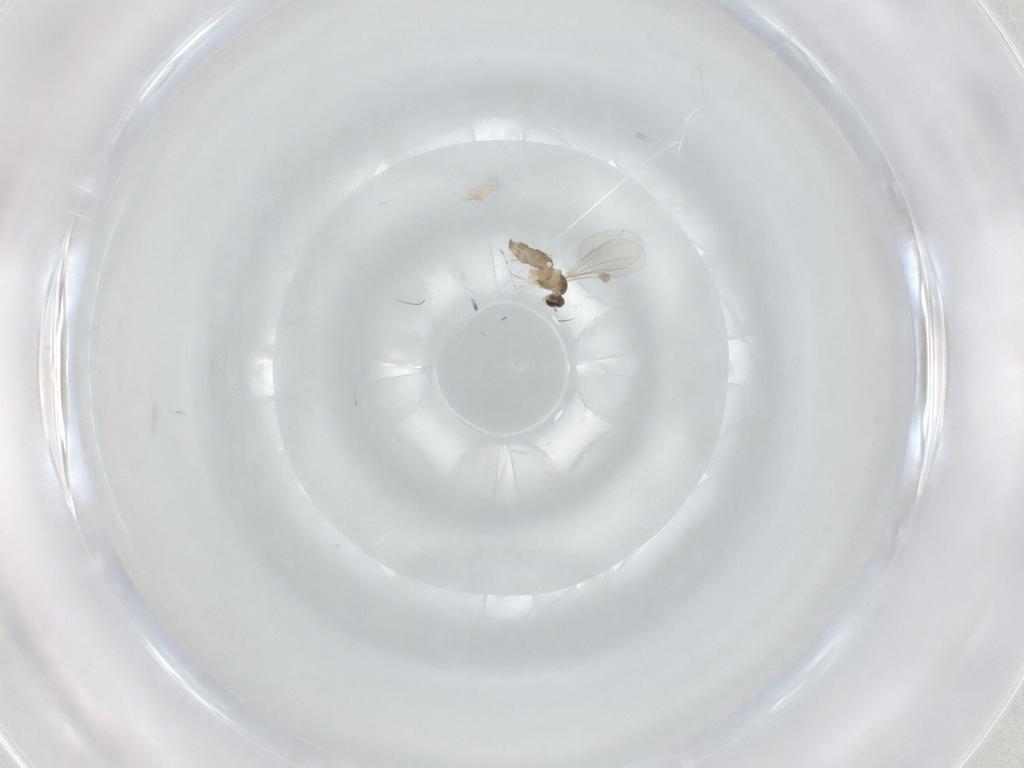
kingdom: Animalia
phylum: Arthropoda
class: Insecta
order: Diptera
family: Cecidomyiidae
